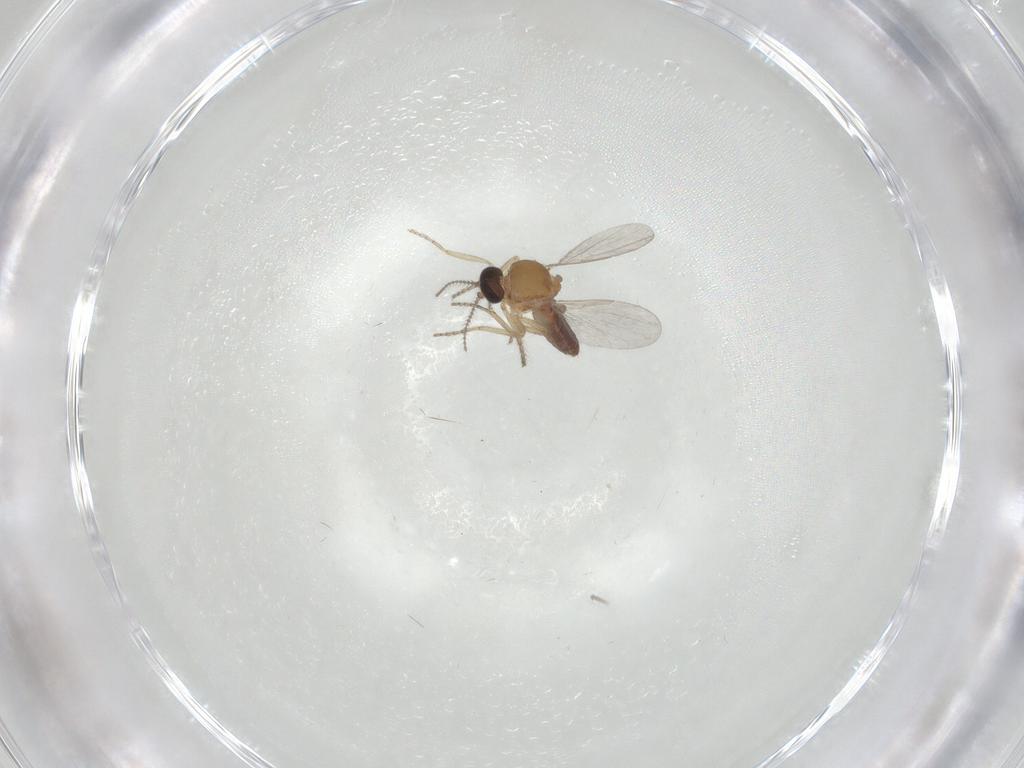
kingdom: Animalia
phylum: Arthropoda
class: Insecta
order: Diptera
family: Ceratopogonidae
